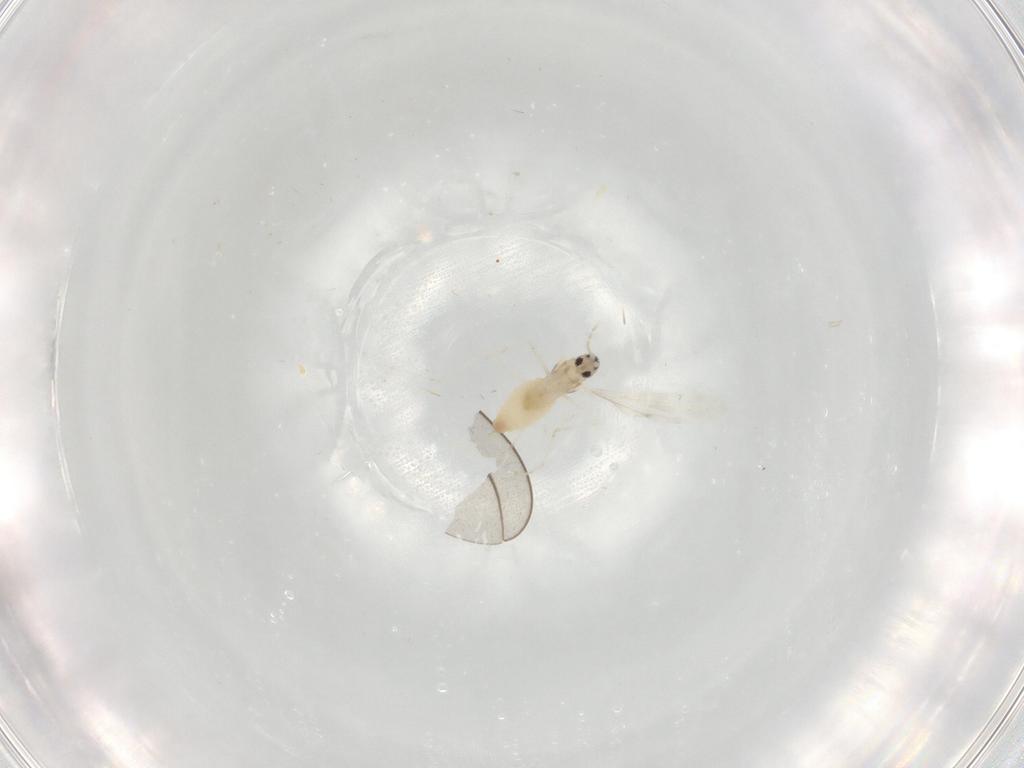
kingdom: Animalia
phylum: Arthropoda
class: Insecta
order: Diptera
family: Cecidomyiidae
